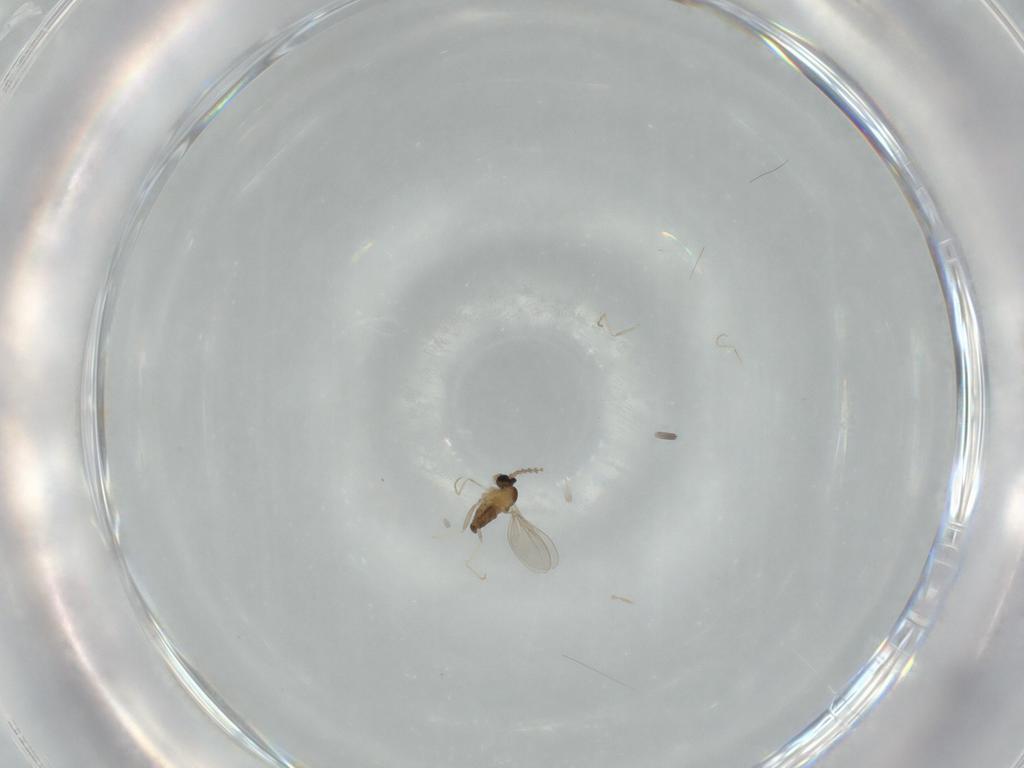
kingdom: Animalia
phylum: Arthropoda
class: Insecta
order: Diptera
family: Cecidomyiidae
